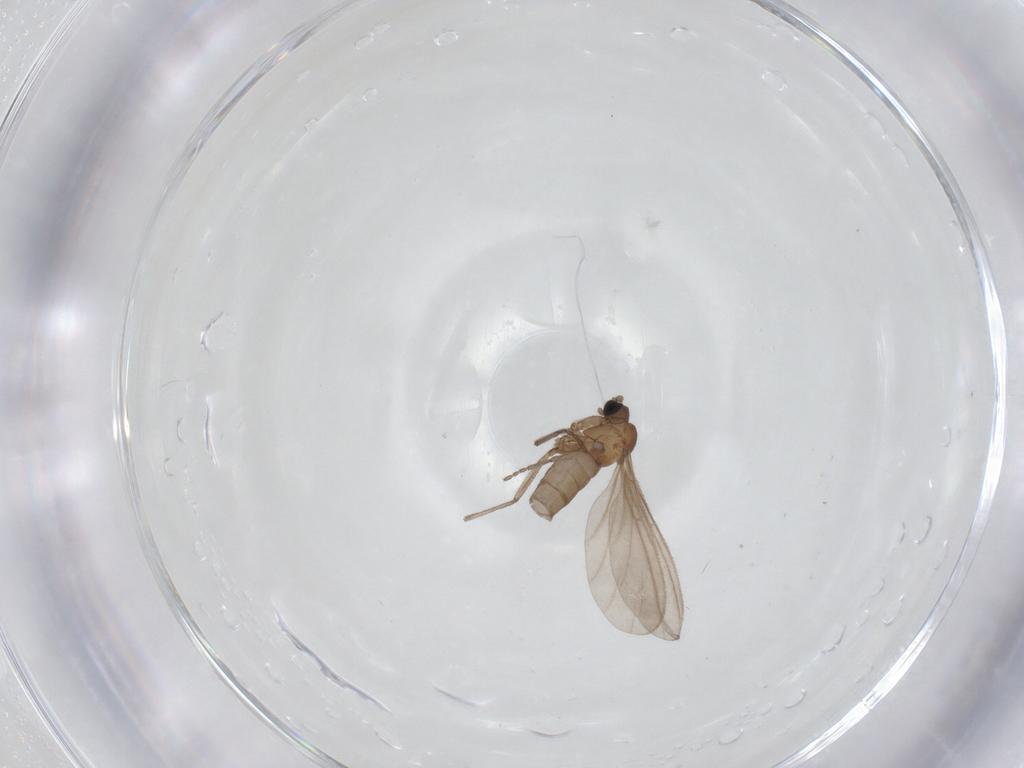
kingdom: Animalia
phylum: Arthropoda
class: Insecta
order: Diptera
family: Sciaridae
